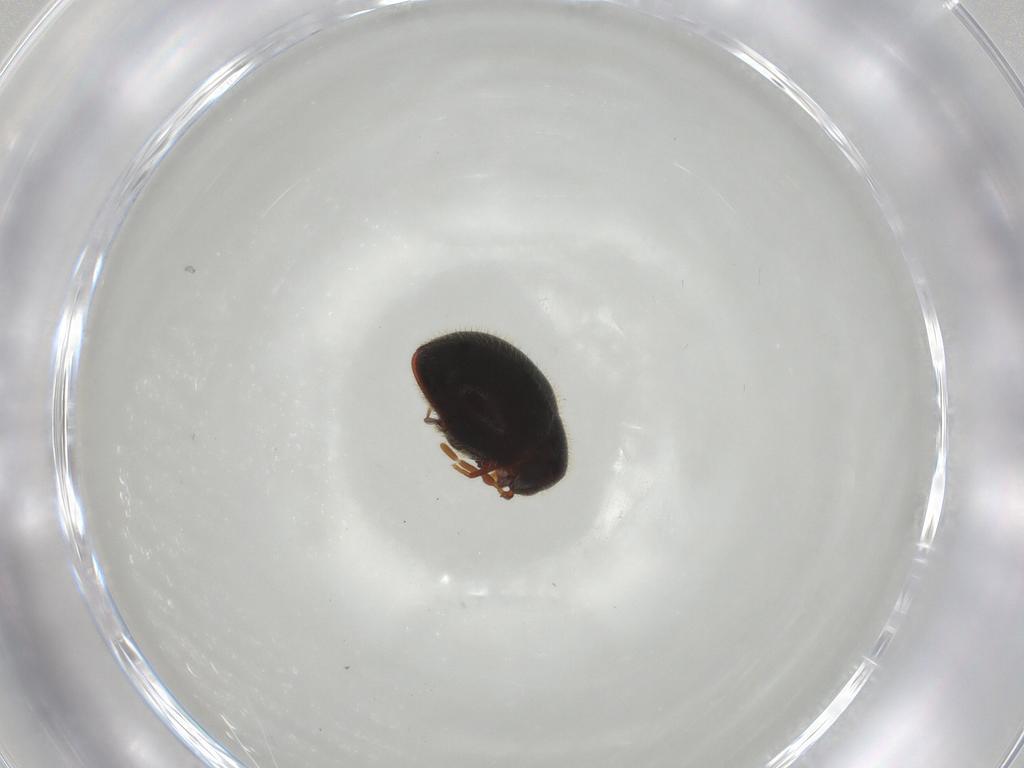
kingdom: Animalia
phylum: Arthropoda
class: Insecta
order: Coleoptera
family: Ptinidae
